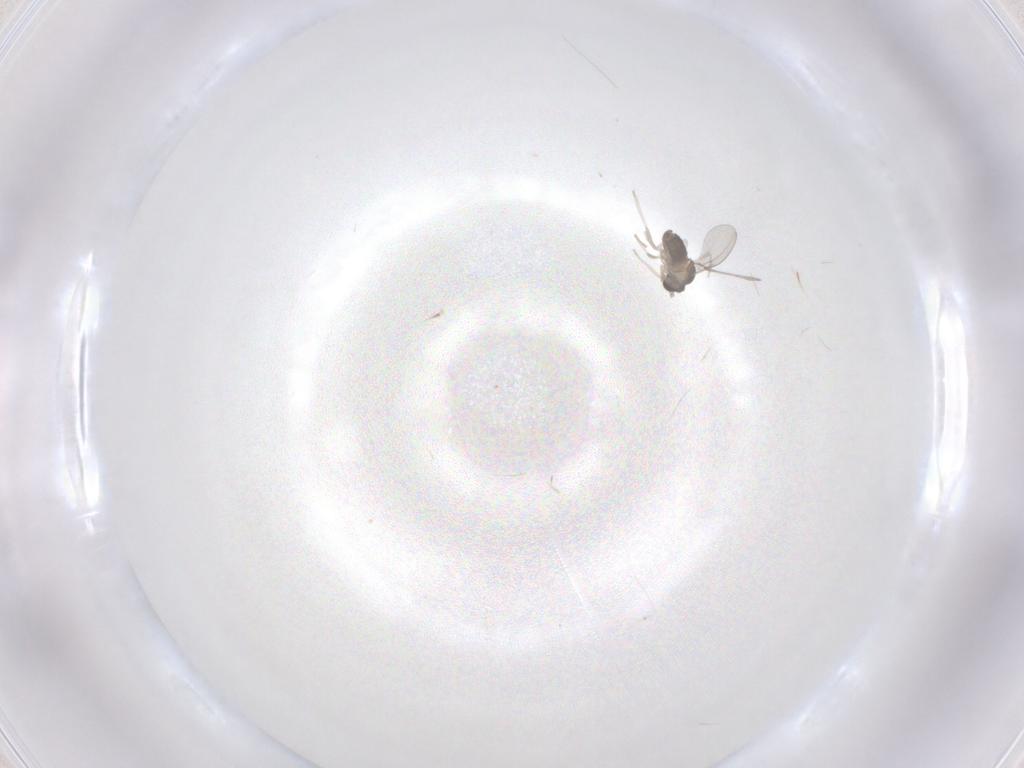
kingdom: Animalia
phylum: Arthropoda
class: Insecta
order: Diptera
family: Cecidomyiidae
